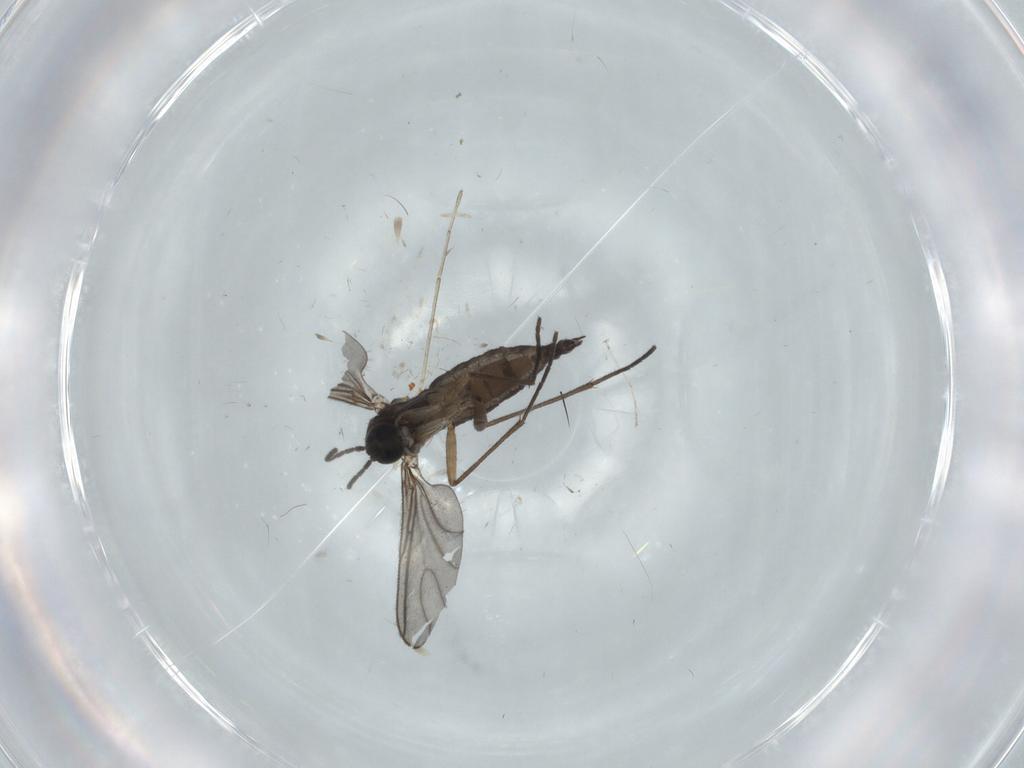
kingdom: Animalia
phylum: Arthropoda
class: Insecta
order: Diptera
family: Sciaridae
